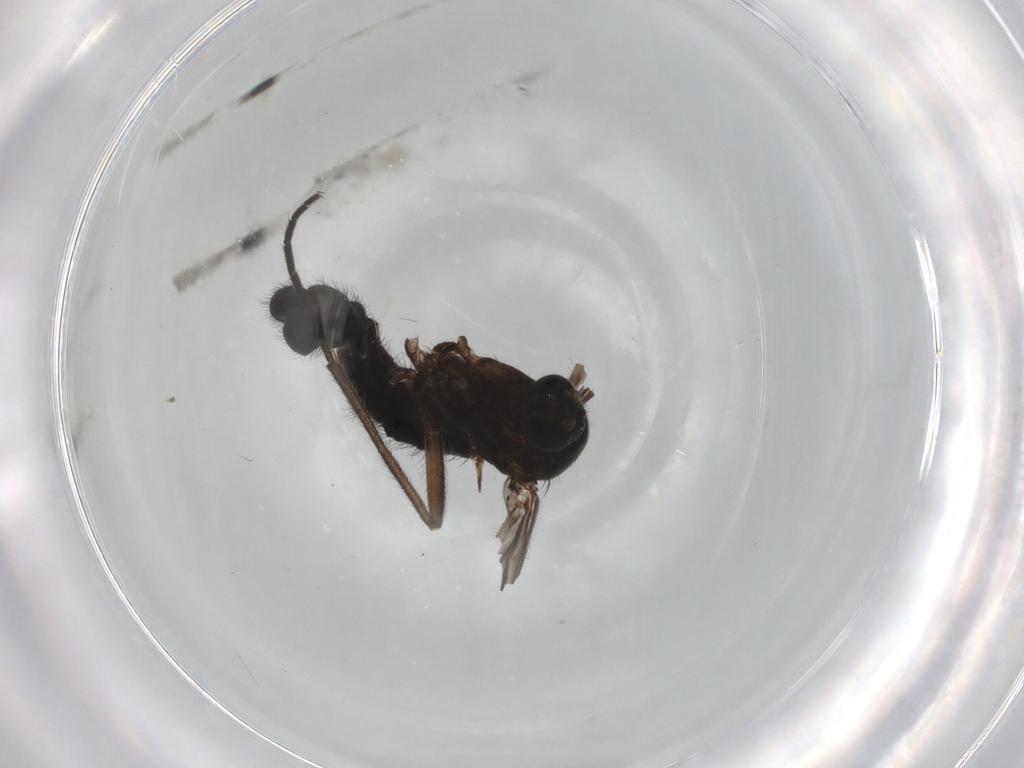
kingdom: Animalia
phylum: Arthropoda
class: Insecta
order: Diptera
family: Sciaridae
